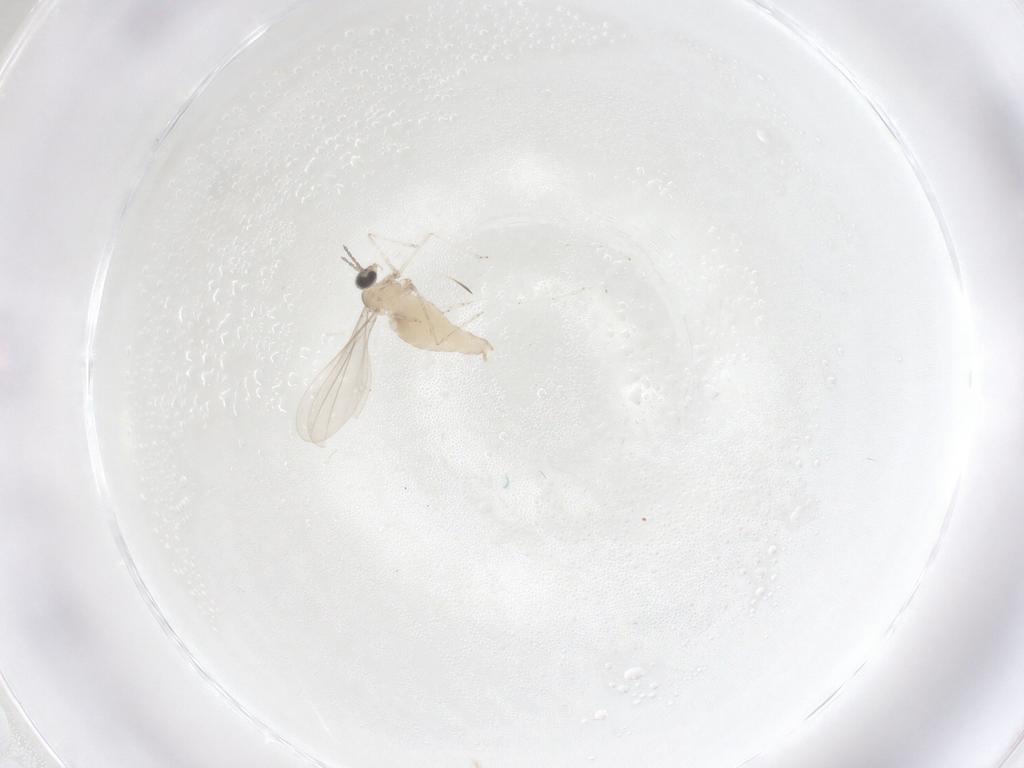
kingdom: Animalia
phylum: Arthropoda
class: Insecta
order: Diptera
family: Cecidomyiidae
